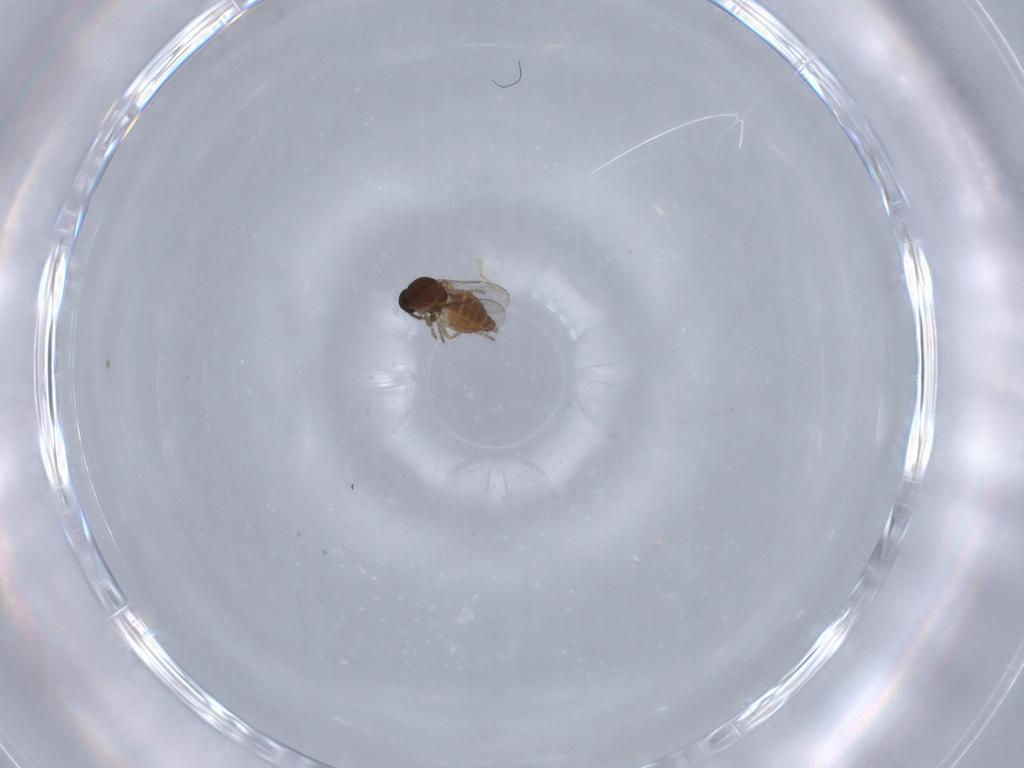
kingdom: Animalia
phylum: Arthropoda
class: Insecta
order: Diptera
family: Ceratopogonidae
